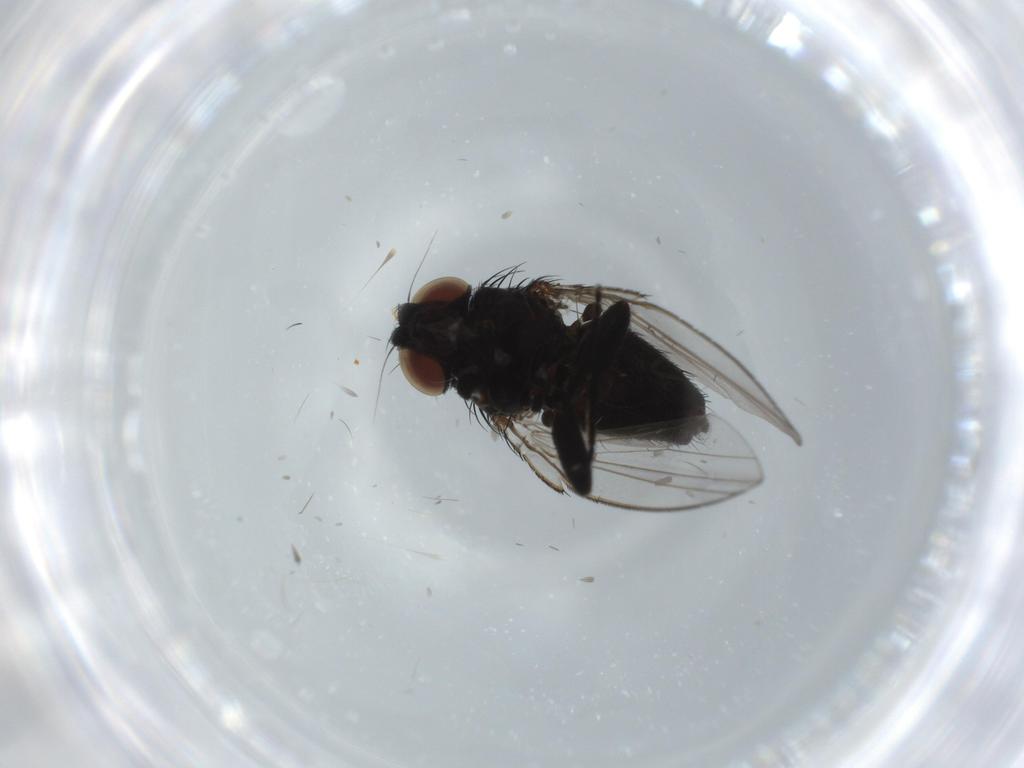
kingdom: Animalia
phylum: Arthropoda
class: Insecta
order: Diptera
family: Milichiidae
